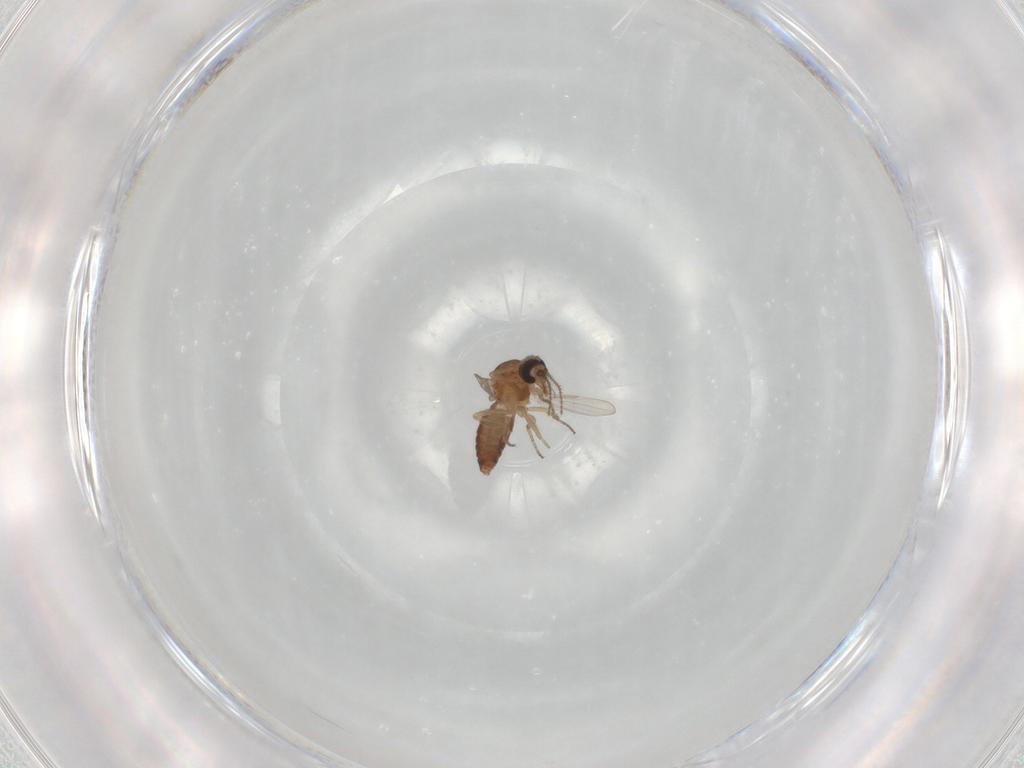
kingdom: Animalia
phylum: Arthropoda
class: Insecta
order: Diptera
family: Ceratopogonidae
